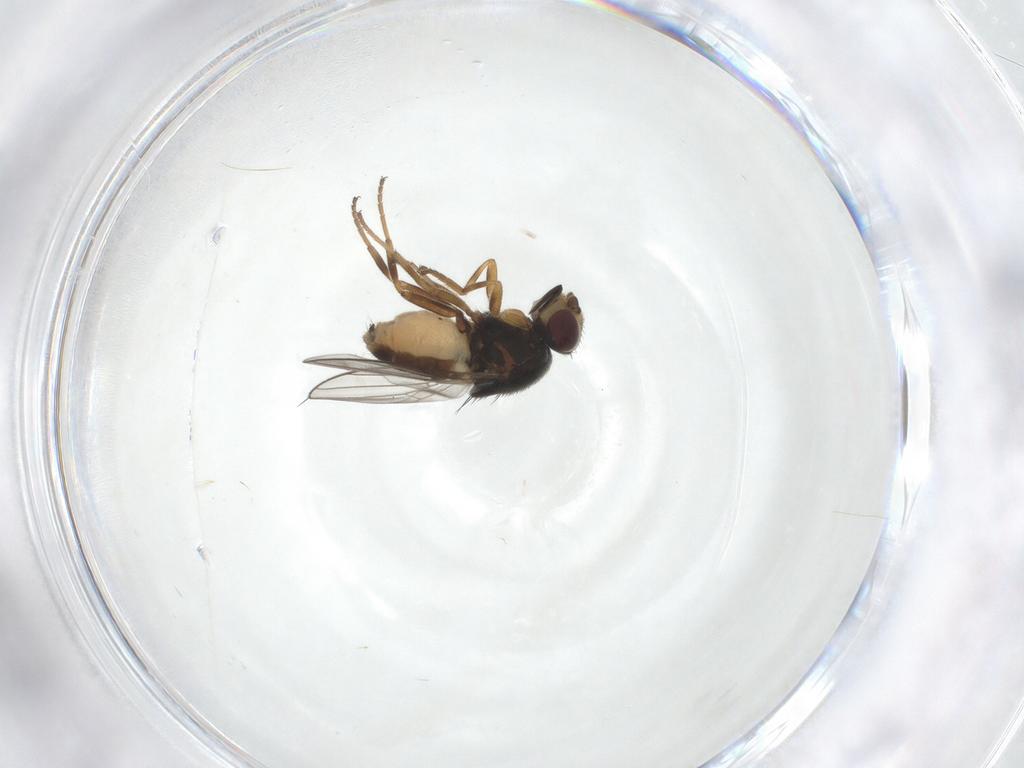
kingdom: Animalia
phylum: Arthropoda
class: Insecta
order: Diptera
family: Chloropidae
